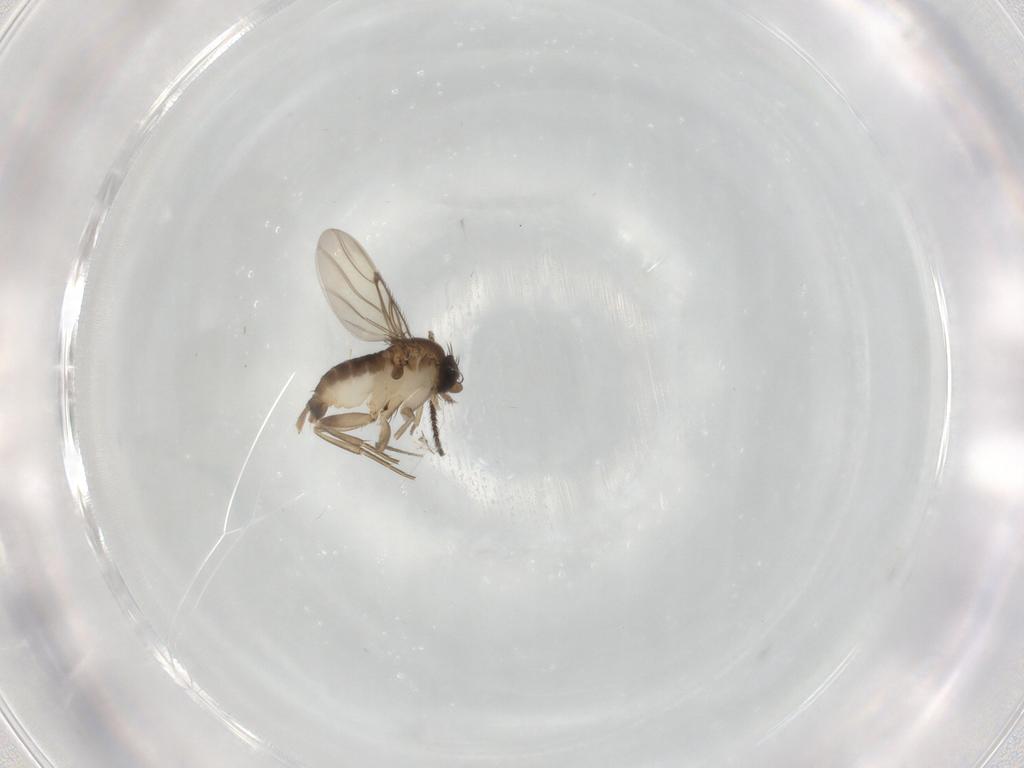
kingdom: Animalia
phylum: Arthropoda
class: Insecta
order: Diptera
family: Phoridae
